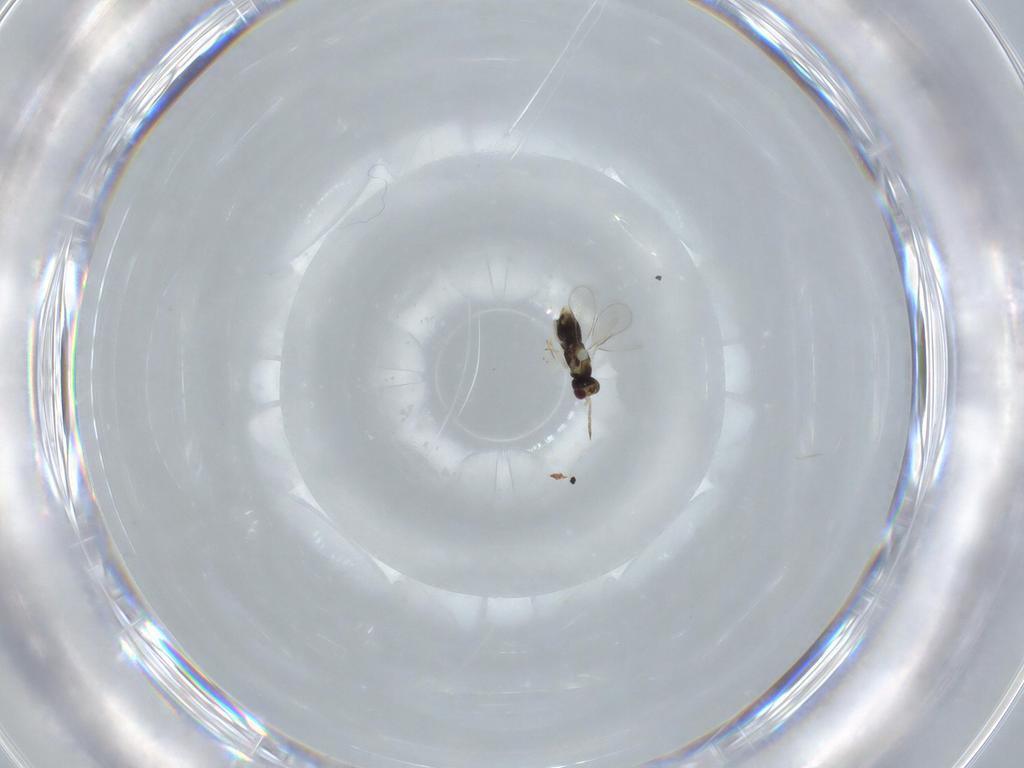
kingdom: Animalia
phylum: Arthropoda
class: Insecta
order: Hymenoptera
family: Aphelinidae
